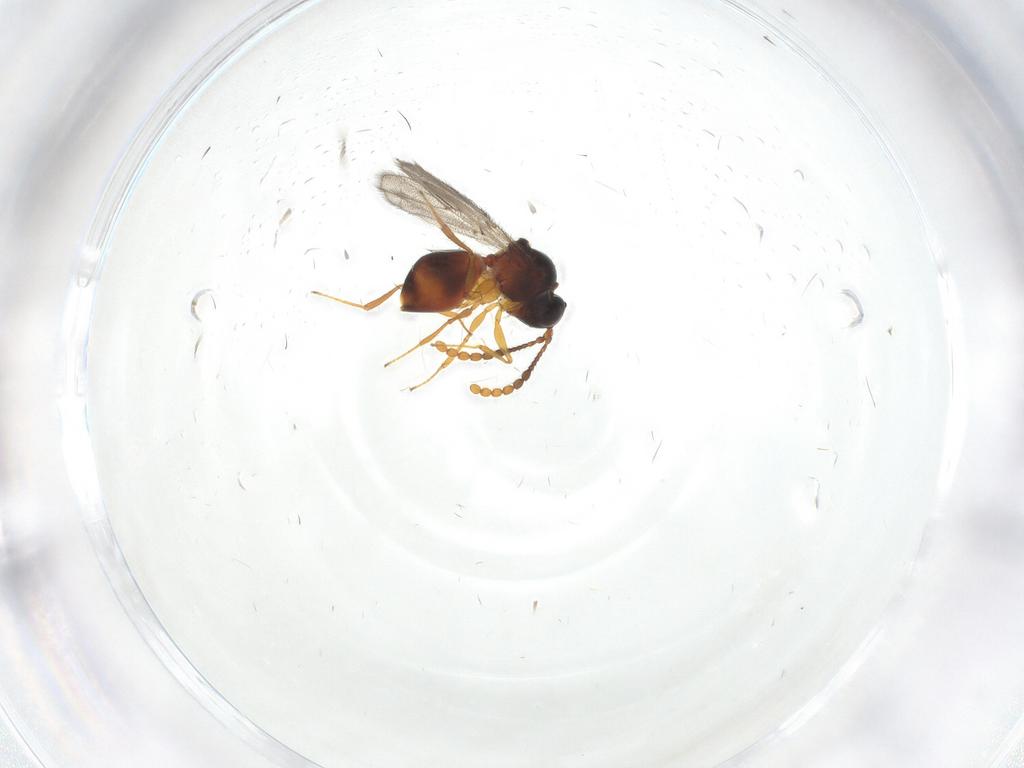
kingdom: Animalia
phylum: Arthropoda
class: Insecta
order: Hymenoptera
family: Figitidae
